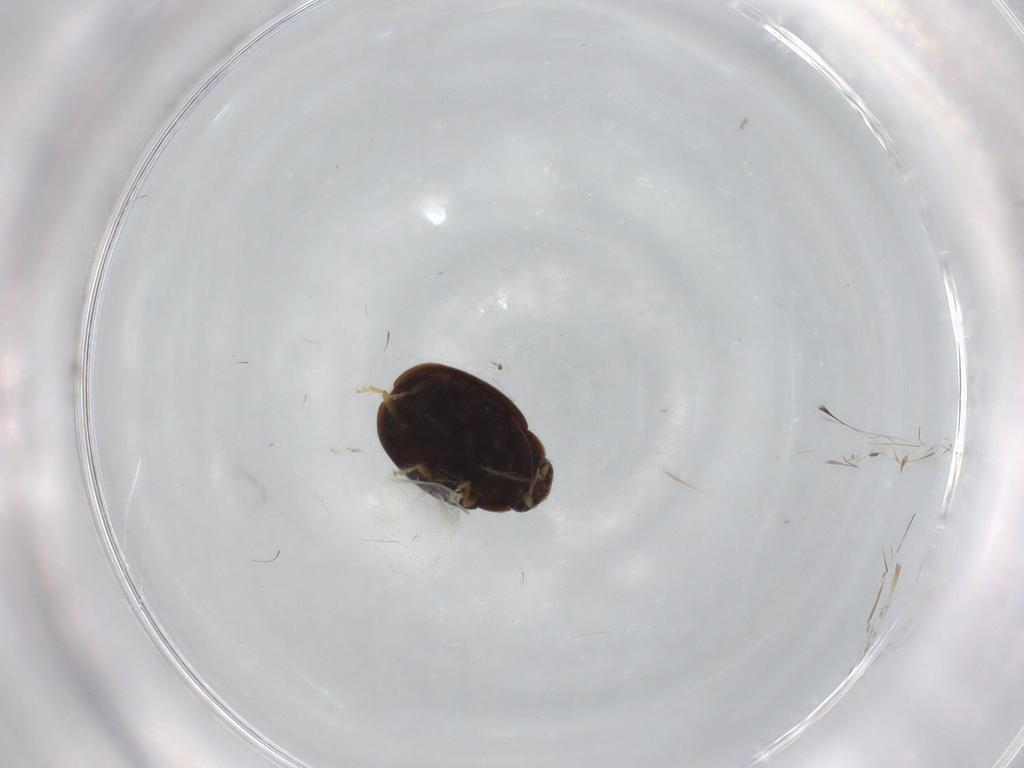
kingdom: Animalia
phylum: Arthropoda
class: Insecta
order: Coleoptera
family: Coccinellidae
